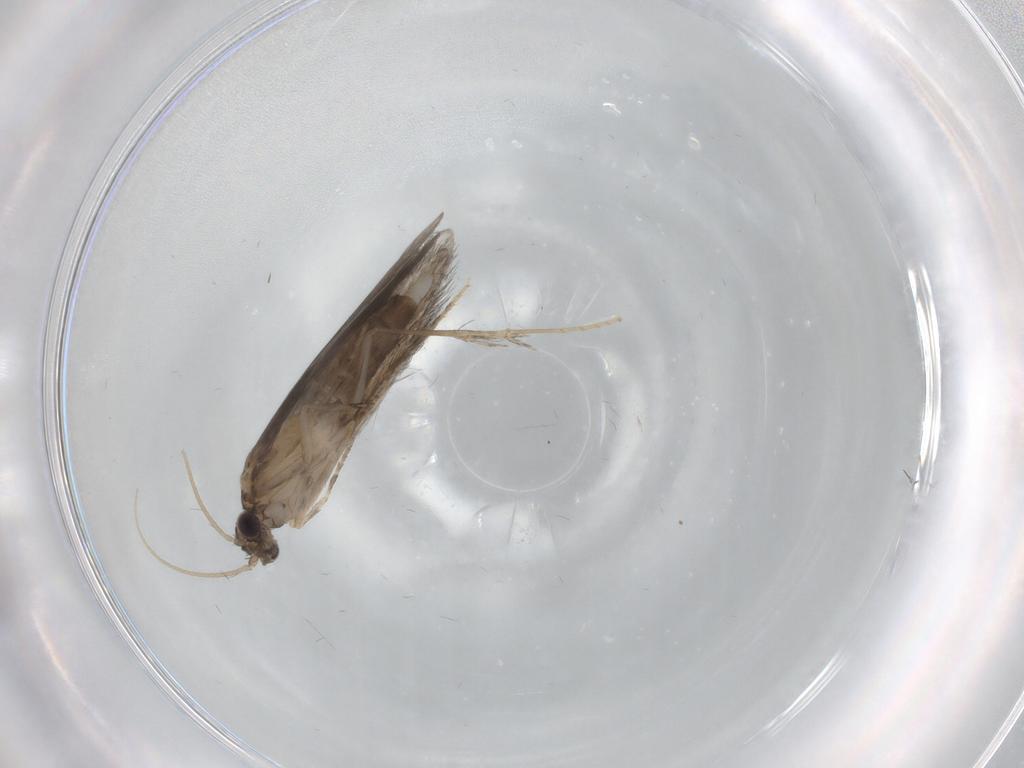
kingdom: Animalia
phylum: Arthropoda
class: Insecta
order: Trichoptera
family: Hydroptilidae
